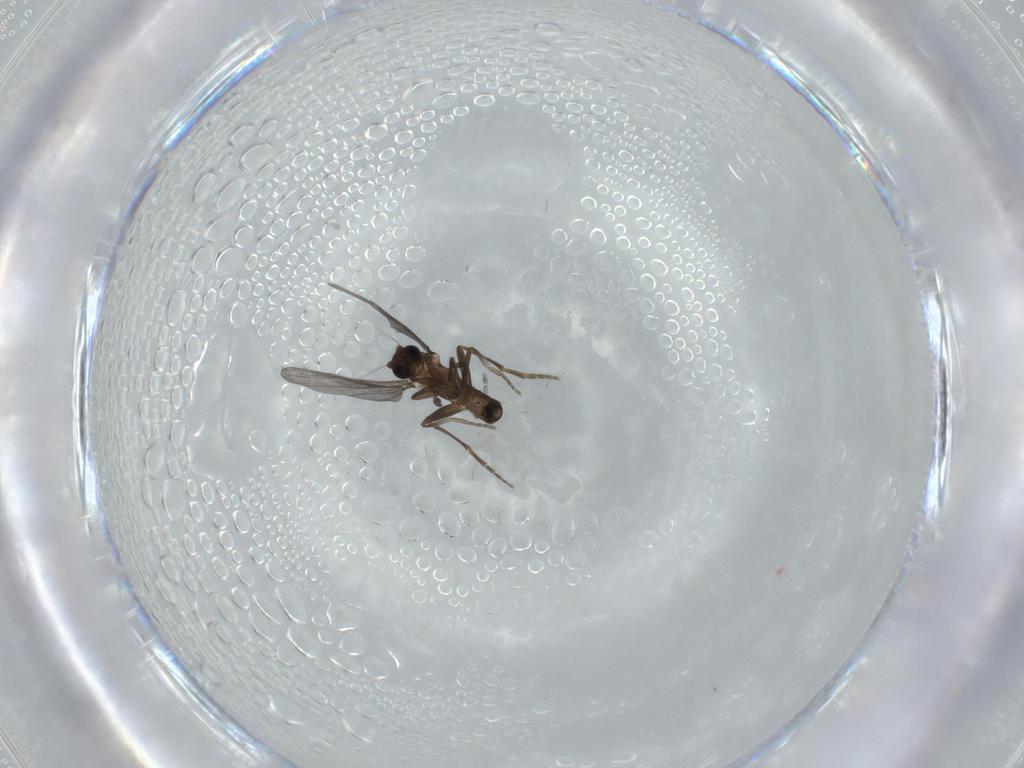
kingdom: Animalia
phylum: Arthropoda
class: Insecta
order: Diptera
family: Phoridae
